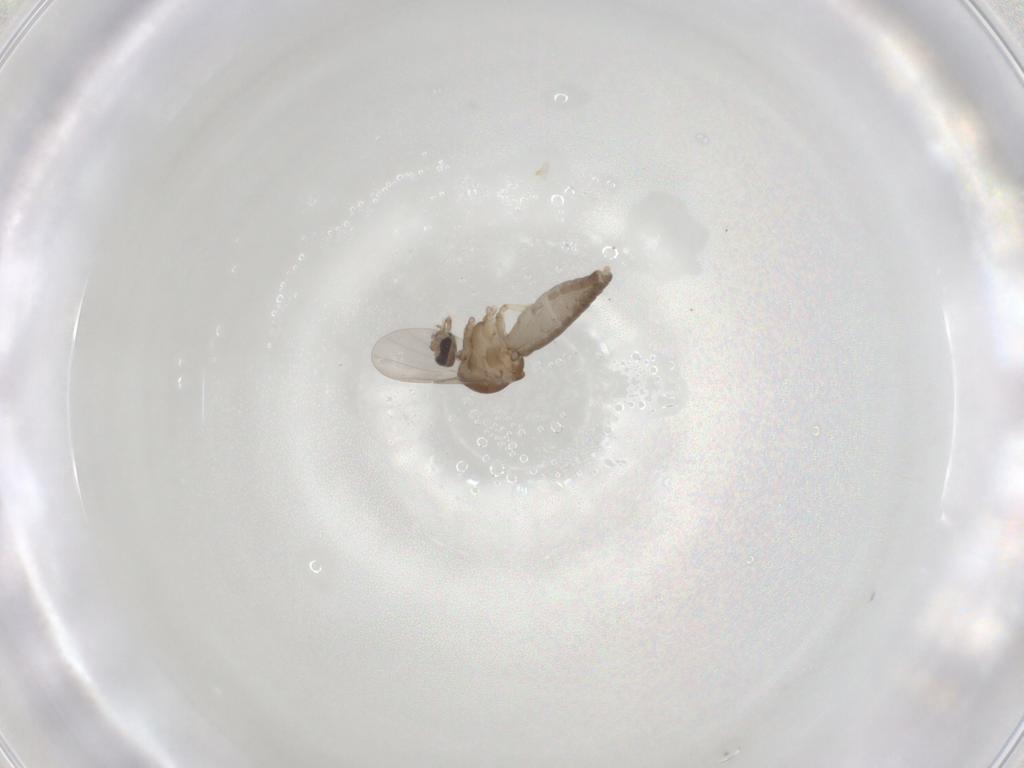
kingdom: Animalia
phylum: Arthropoda
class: Insecta
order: Diptera
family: Ceratopogonidae
